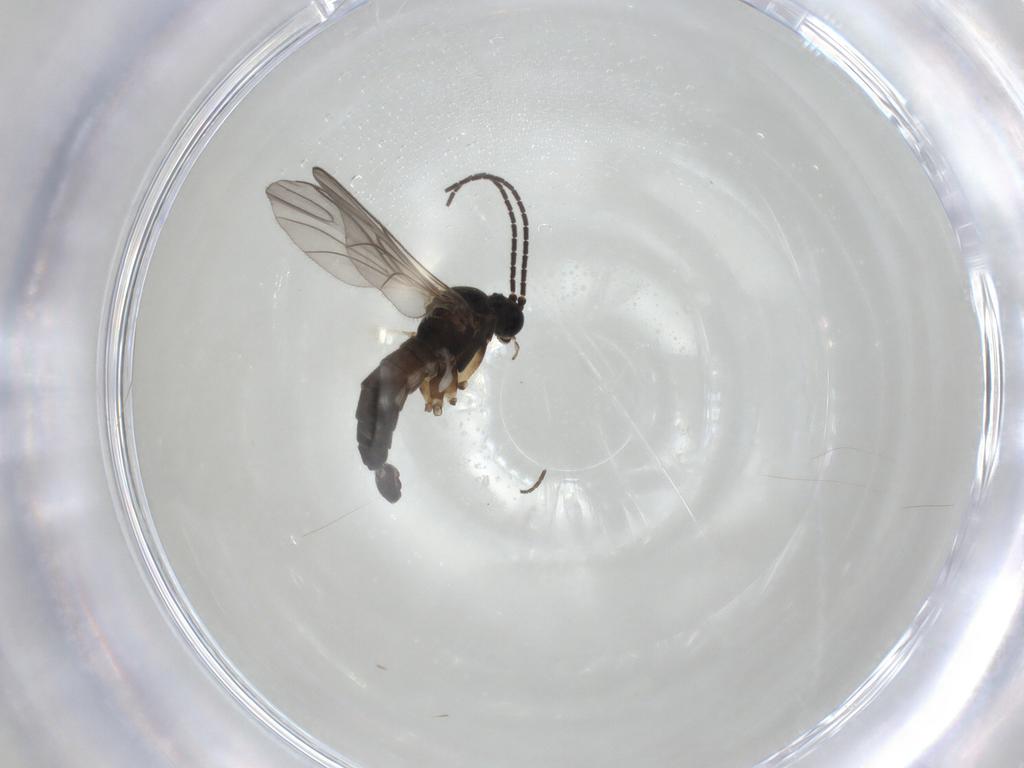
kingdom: Animalia
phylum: Arthropoda
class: Insecta
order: Diptera
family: Sciaridae
